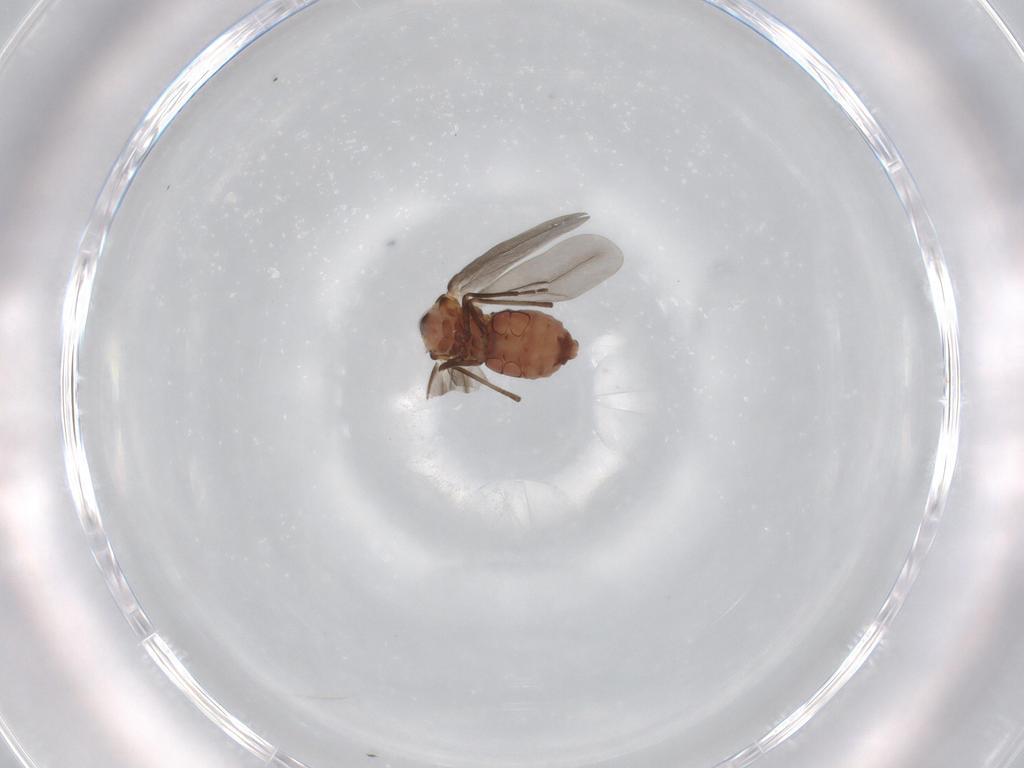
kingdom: Animalia
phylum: Arthropoda
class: Insecta
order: Hemiptera
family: Aleyrodidae
